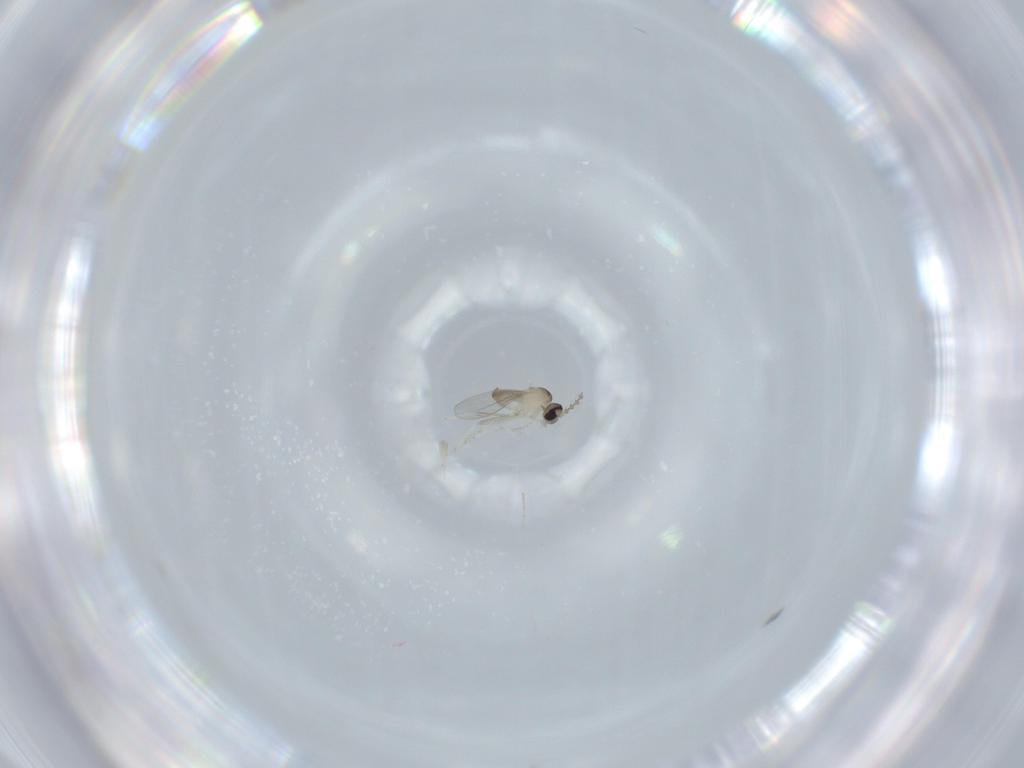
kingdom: Animalia
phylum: Arthropoda
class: Insecta
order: Diptera
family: Cecidomyiidae
